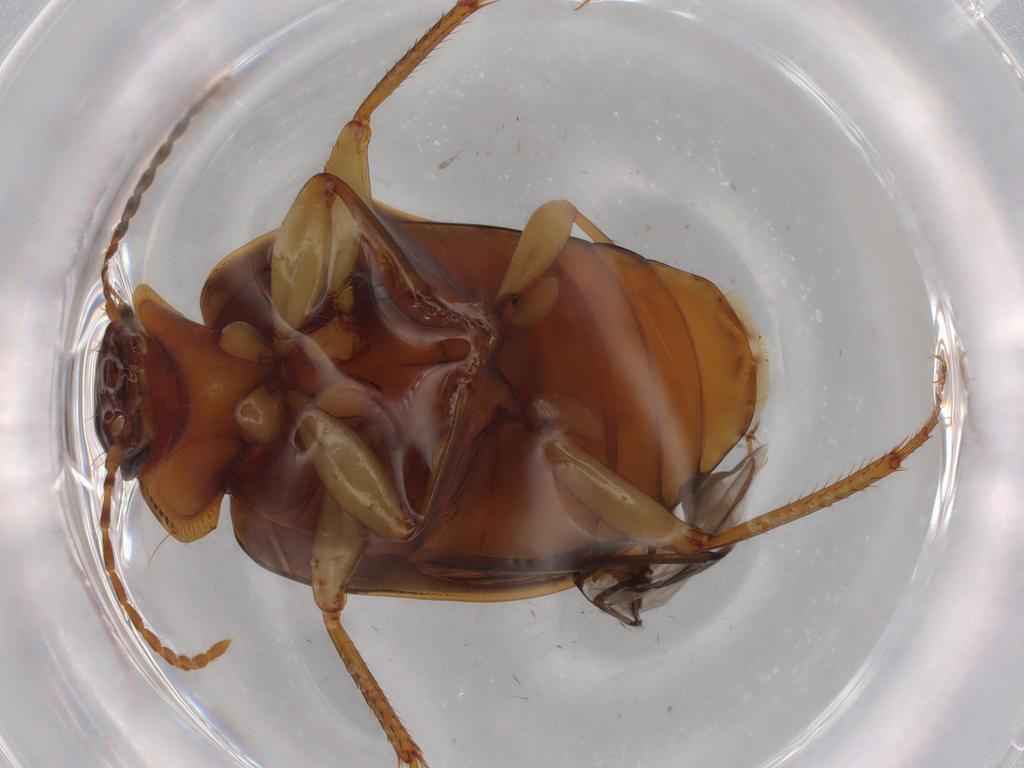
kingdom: Animalia
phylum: Arthropoda
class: Insecta
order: Coleoptera
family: Carabidae
